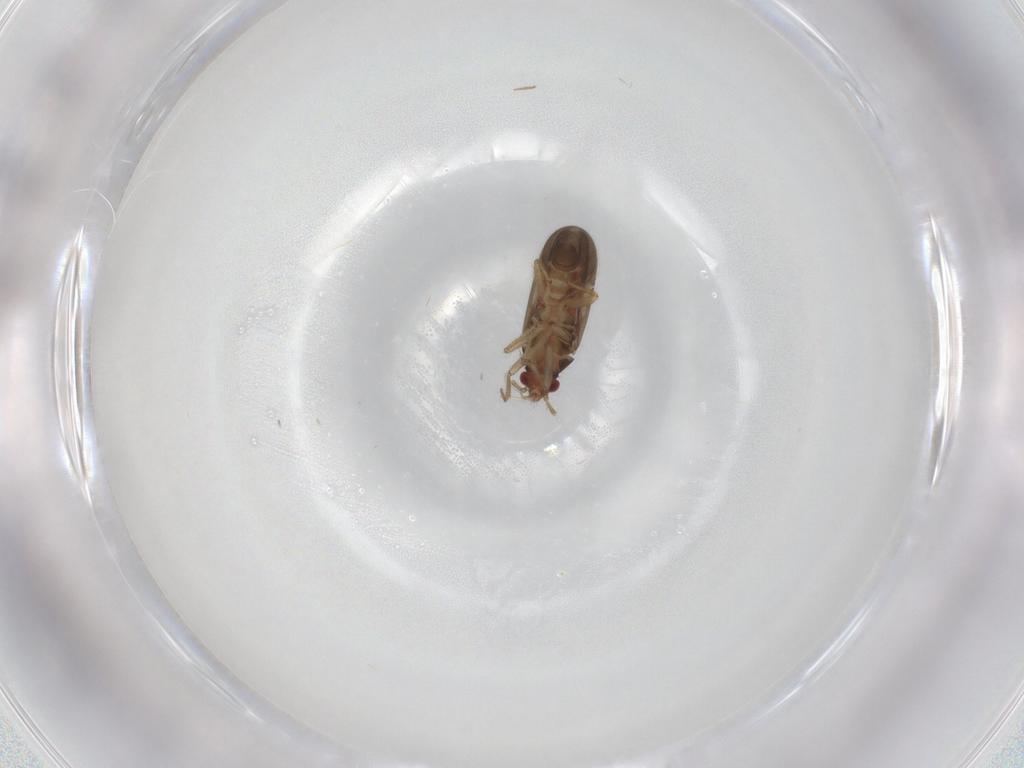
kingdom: Animalia
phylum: Arthropoda
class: Insecta
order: Hemiptera
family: Ceratocombidae
